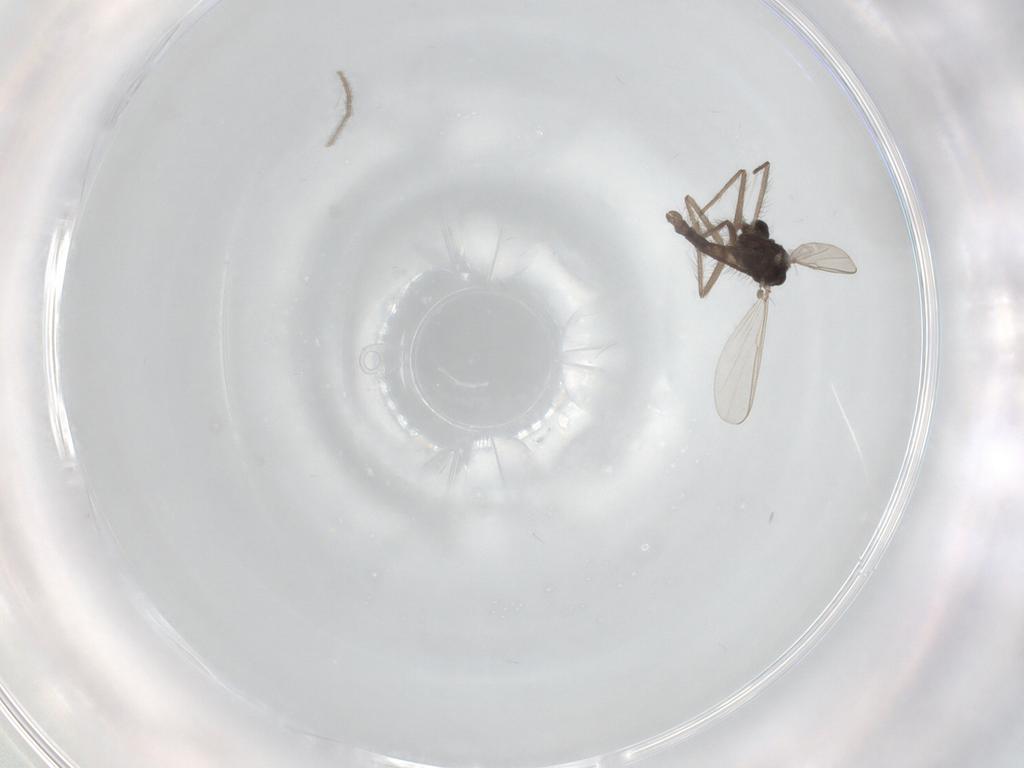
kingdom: Animalia
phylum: Arthropoda
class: Insecta
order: Diptera
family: Chironomidae
